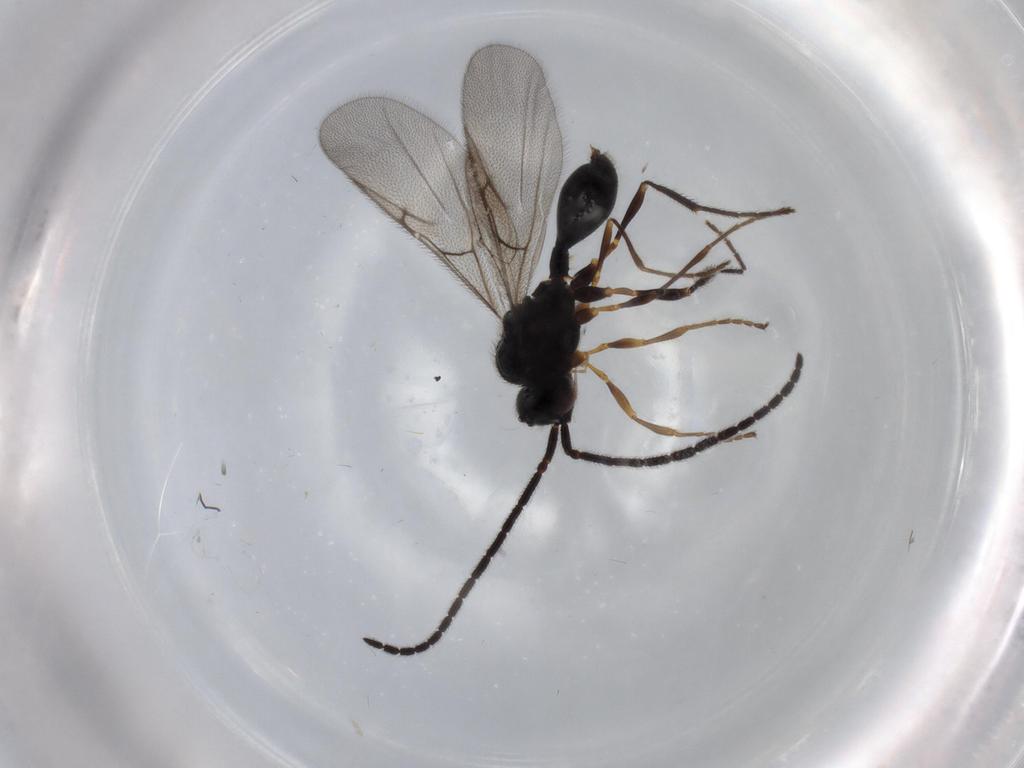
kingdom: Animalia
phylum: Arthropoda
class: Insecta
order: Hymenoptera
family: Diapriidae
